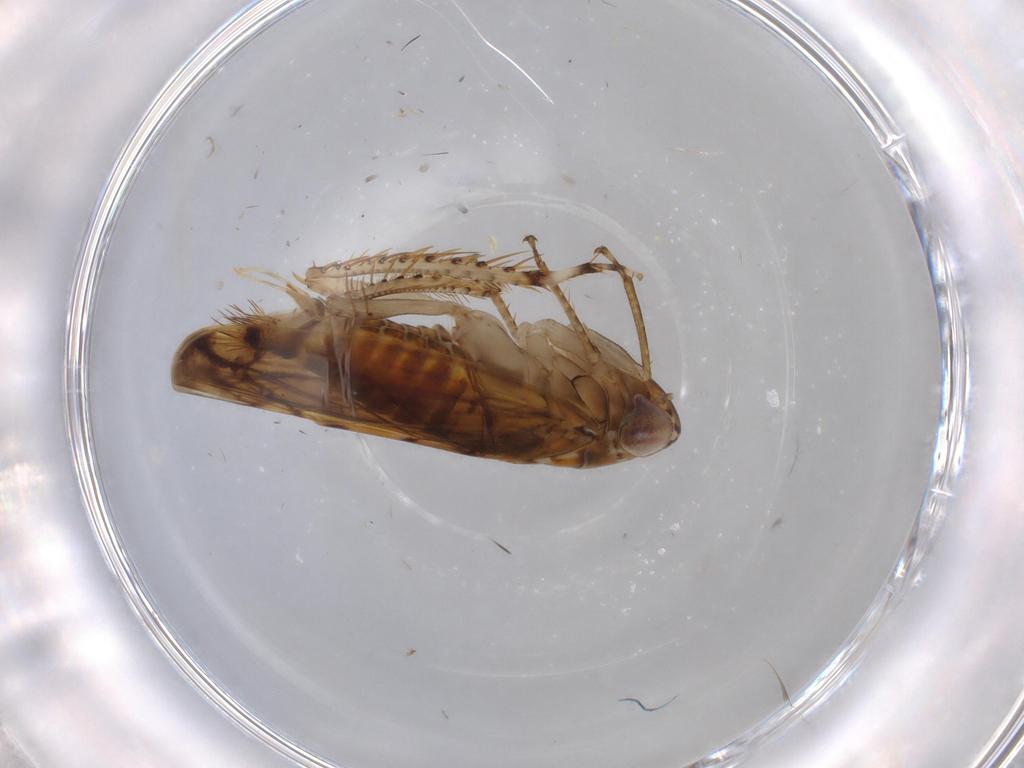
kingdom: Animalia
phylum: Arthropoda
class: Insecta
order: Hemiptera
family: Cicadellidae
